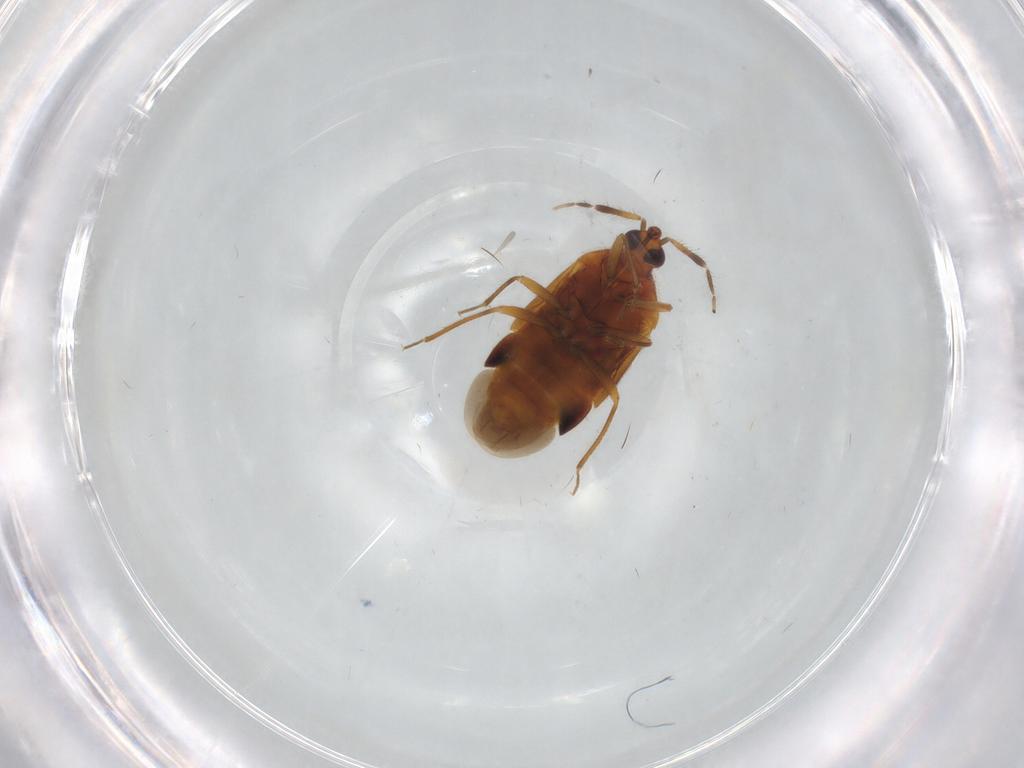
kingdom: Animalia
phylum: Arthropoda
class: Insecta
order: Hemiptera
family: Anthocoridae
